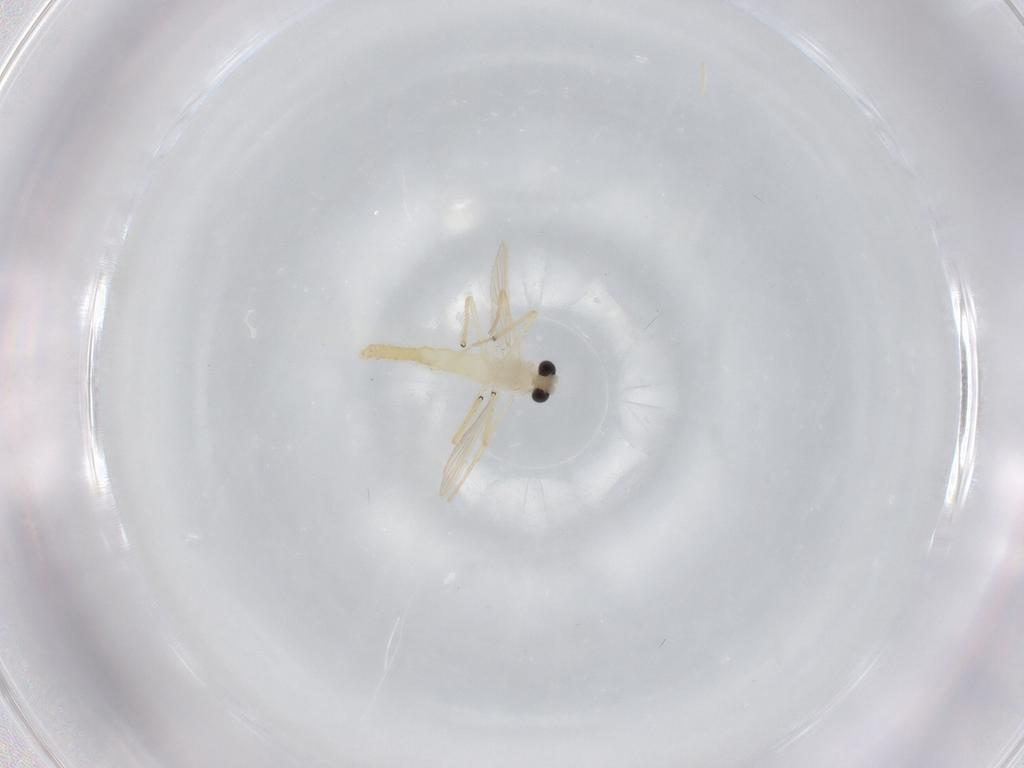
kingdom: Animalia
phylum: Arthropoda
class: Insecta
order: Diptera
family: Chironomidae
